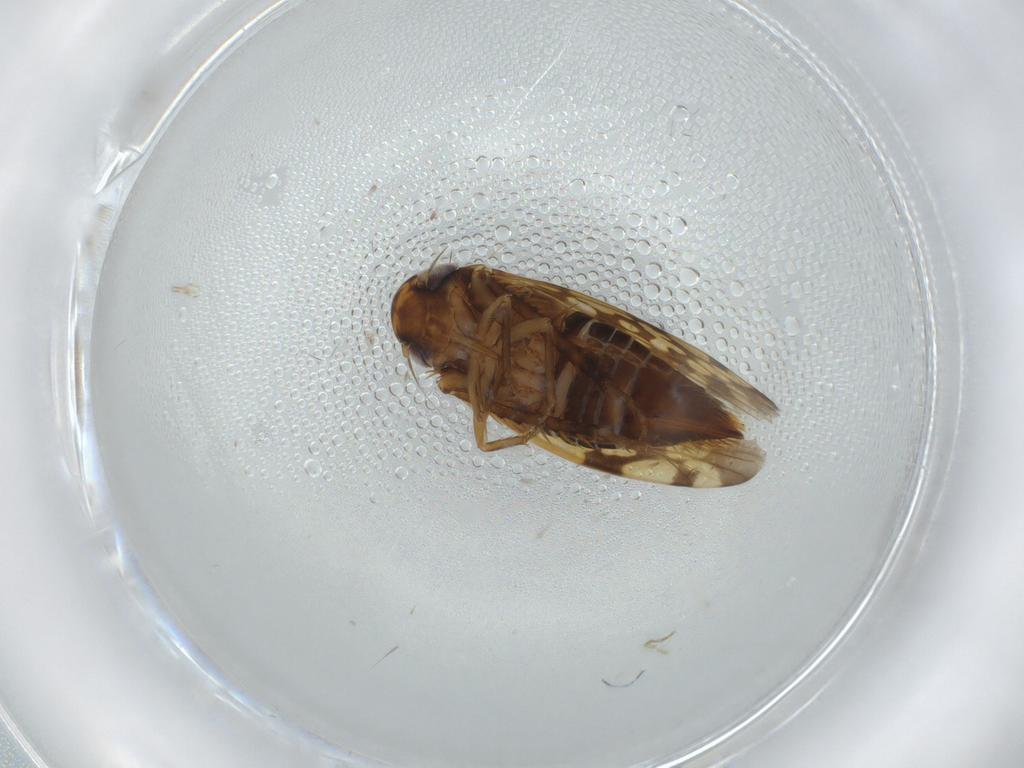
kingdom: Animalia
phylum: Arthropoda
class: Insecta
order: Hemiptera
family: Cicadellidae
